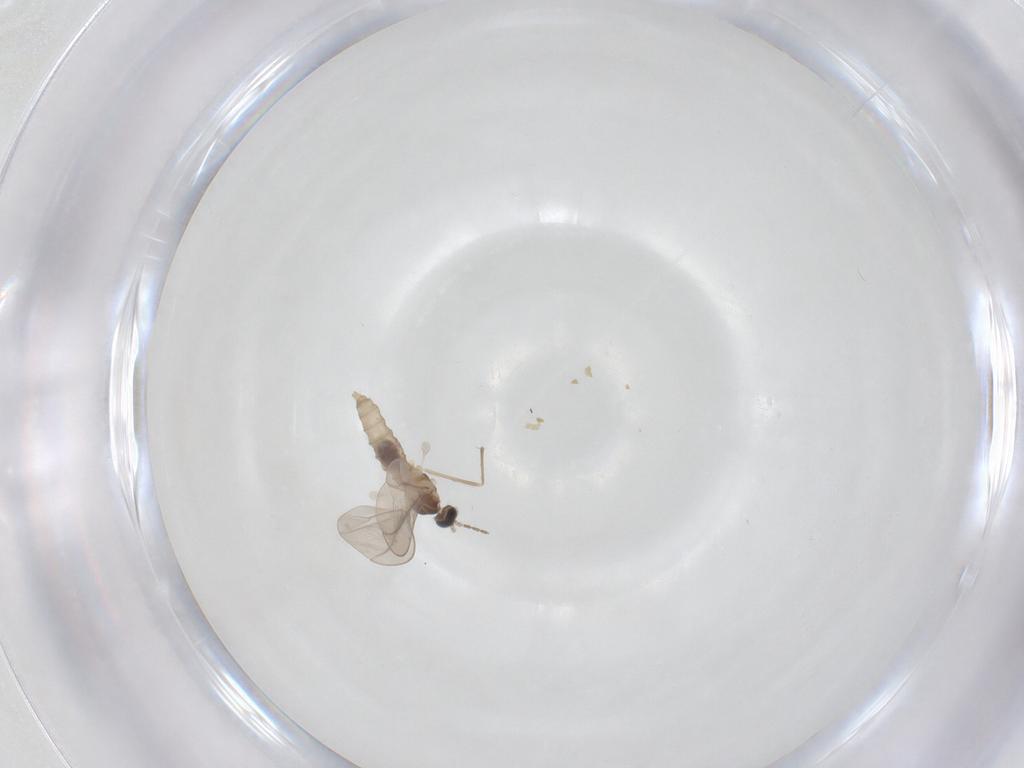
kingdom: Animalia
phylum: Arthropoda
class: Insecta
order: Diptera
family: Cecidomyiidae
